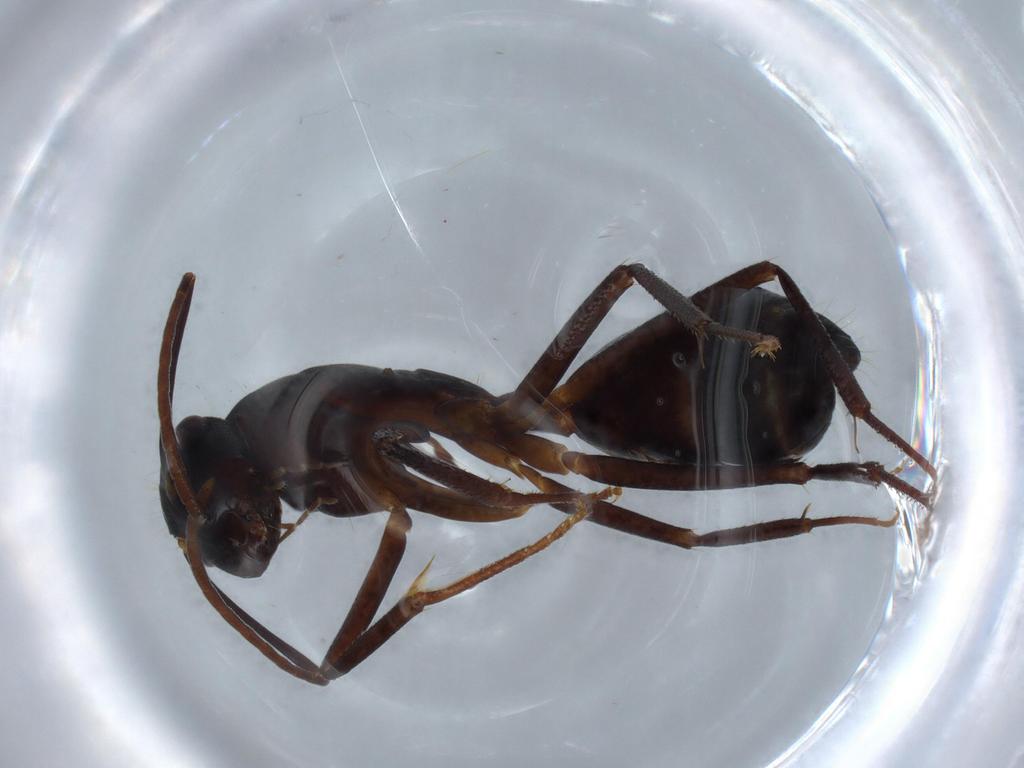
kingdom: Animalia
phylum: Arthropoda
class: Insecta
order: Hymenoptera
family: Formicidae
